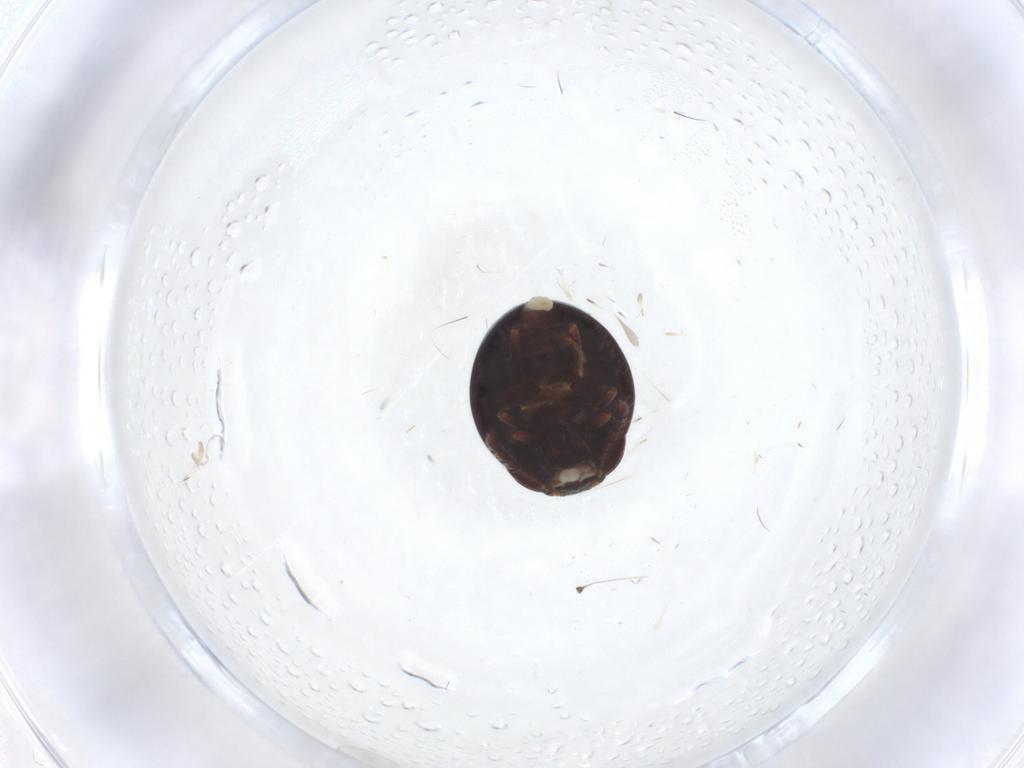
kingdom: Animalia
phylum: Arthropoda
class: Insecta
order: Coleoptera
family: Anamorphidae
